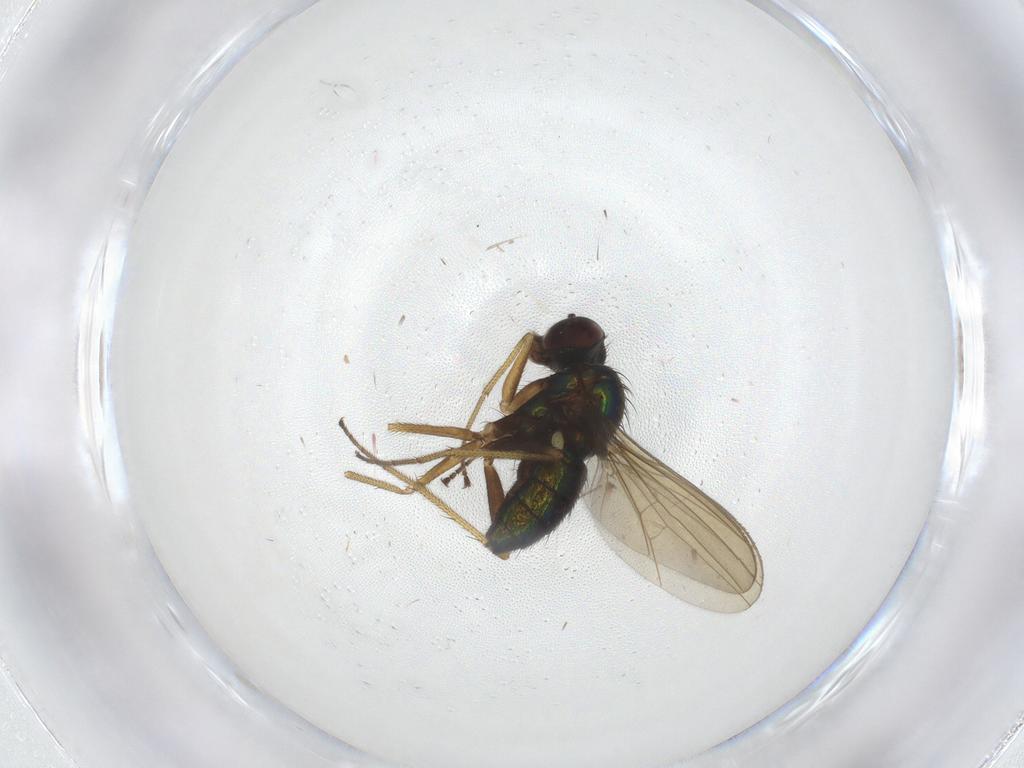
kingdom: Animalia
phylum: Arthropoda
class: Insecta
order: Diptera
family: Dolichopodidae
